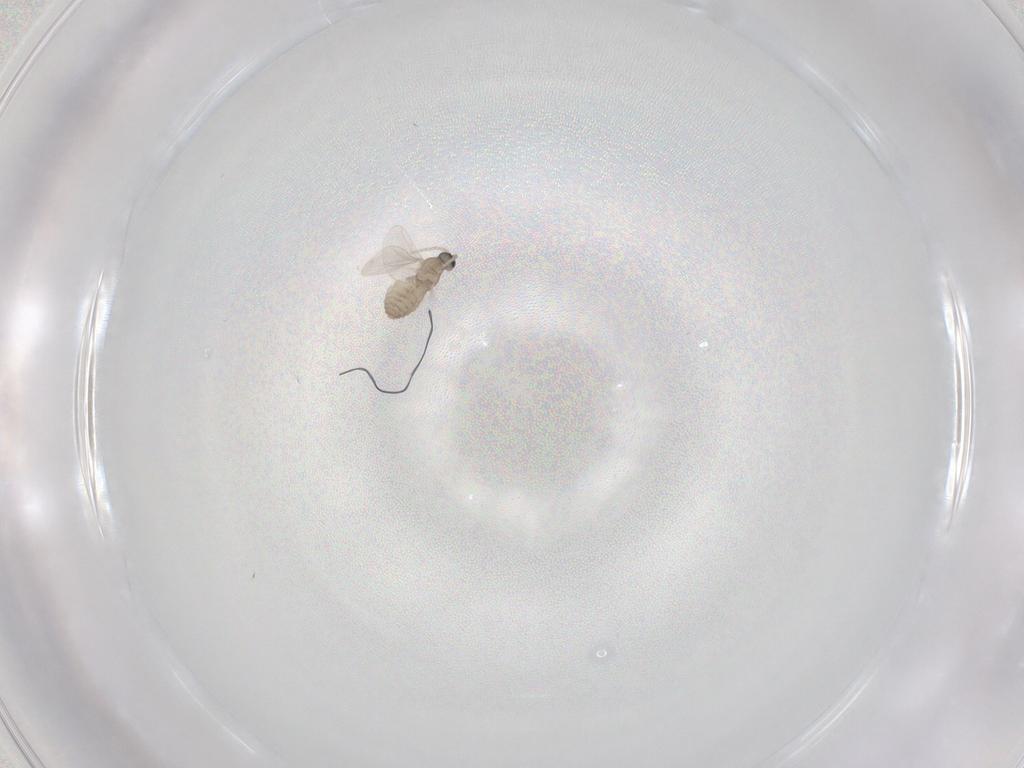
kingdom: Animalia
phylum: Arthropoda
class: Insecta
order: Diptera
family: Cecidomyiidae
